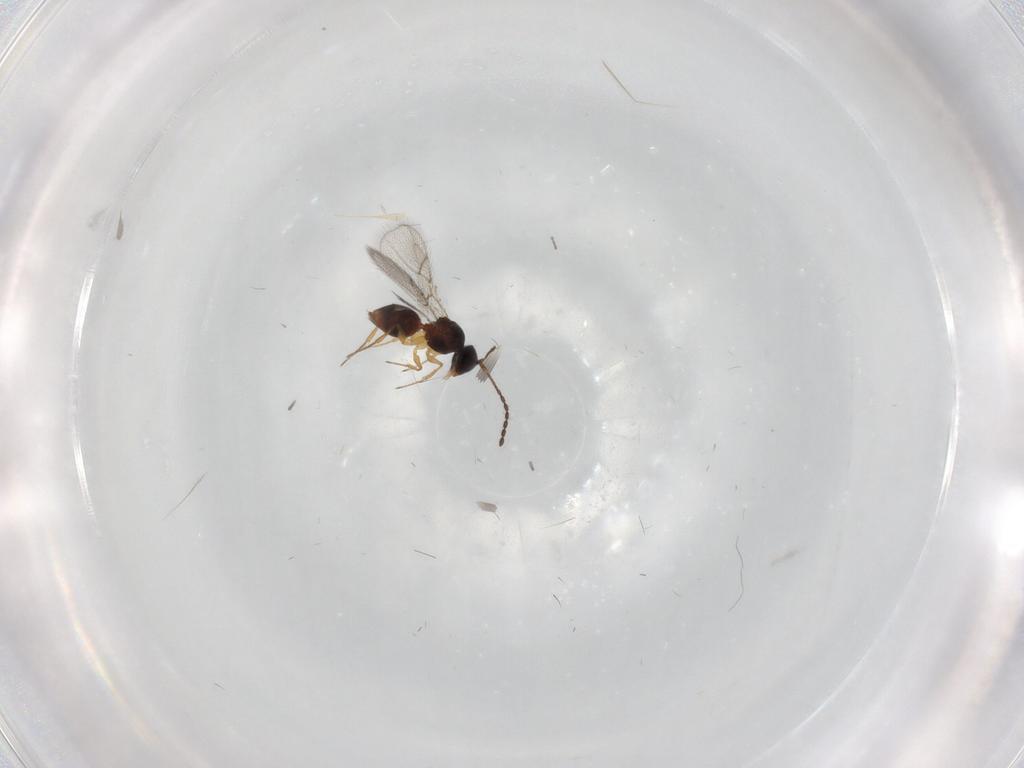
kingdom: Animalia
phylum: Arthropoda
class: Insecta
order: Diptera
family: Cecidomyiidae
